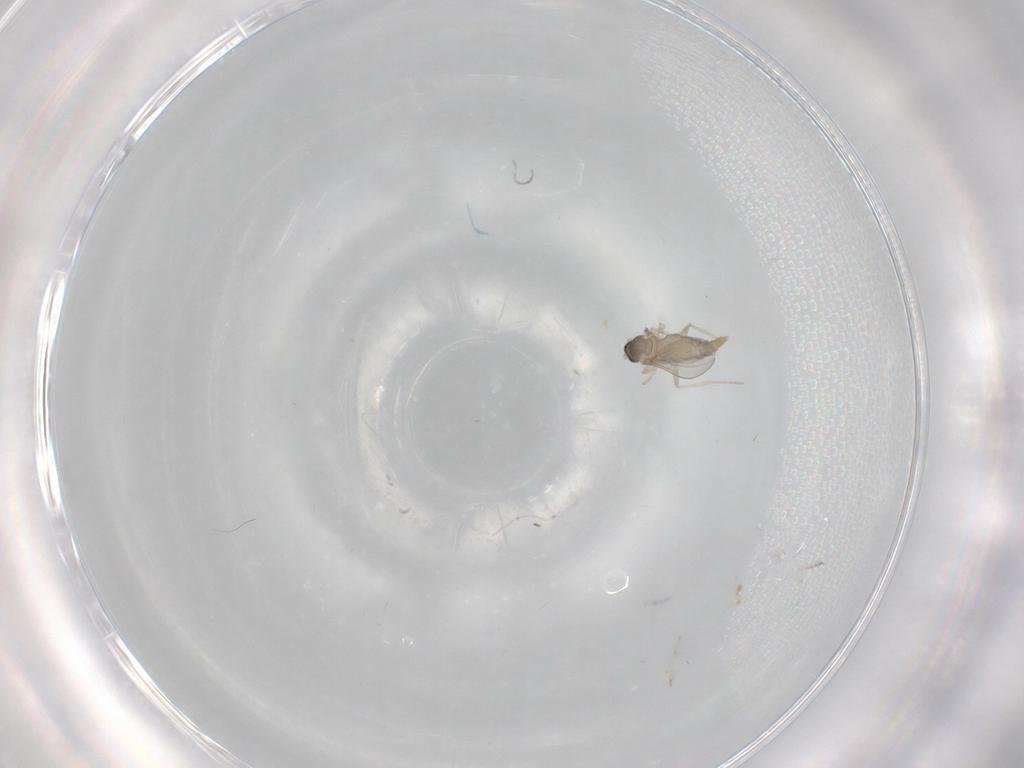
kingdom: Animalia
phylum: Arthropoda
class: Insecta
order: Diptera
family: Cecidomyiidae
